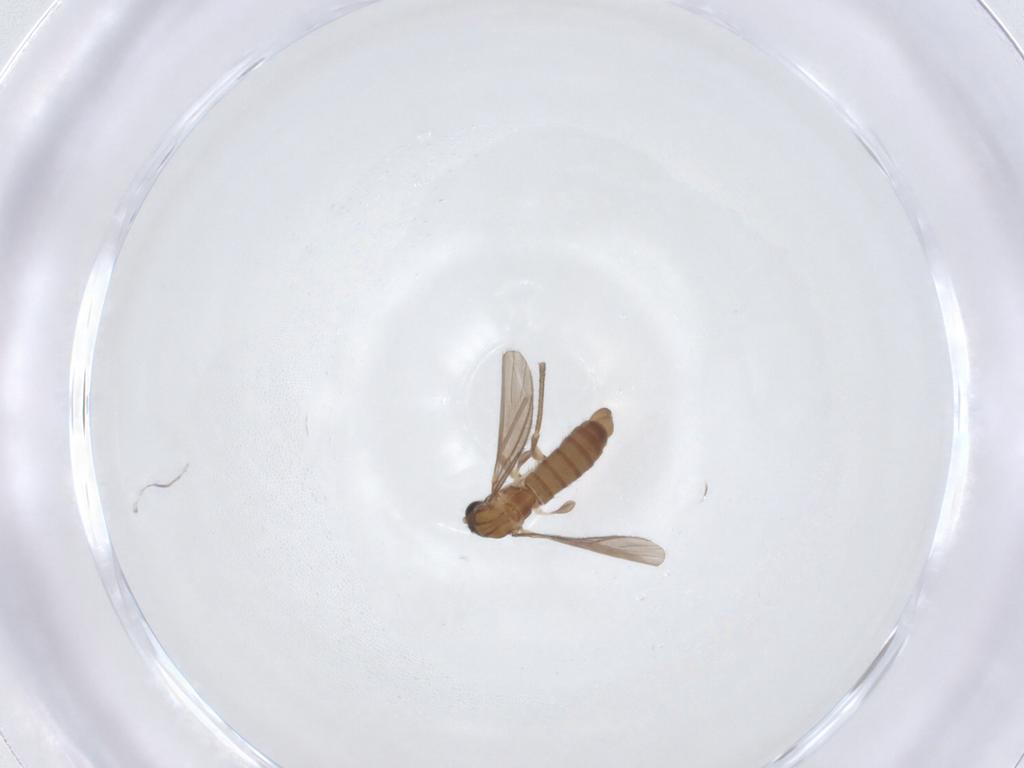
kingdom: Animalia
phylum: Arthropoda
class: Insecta
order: Diptera
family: Sciaridae
